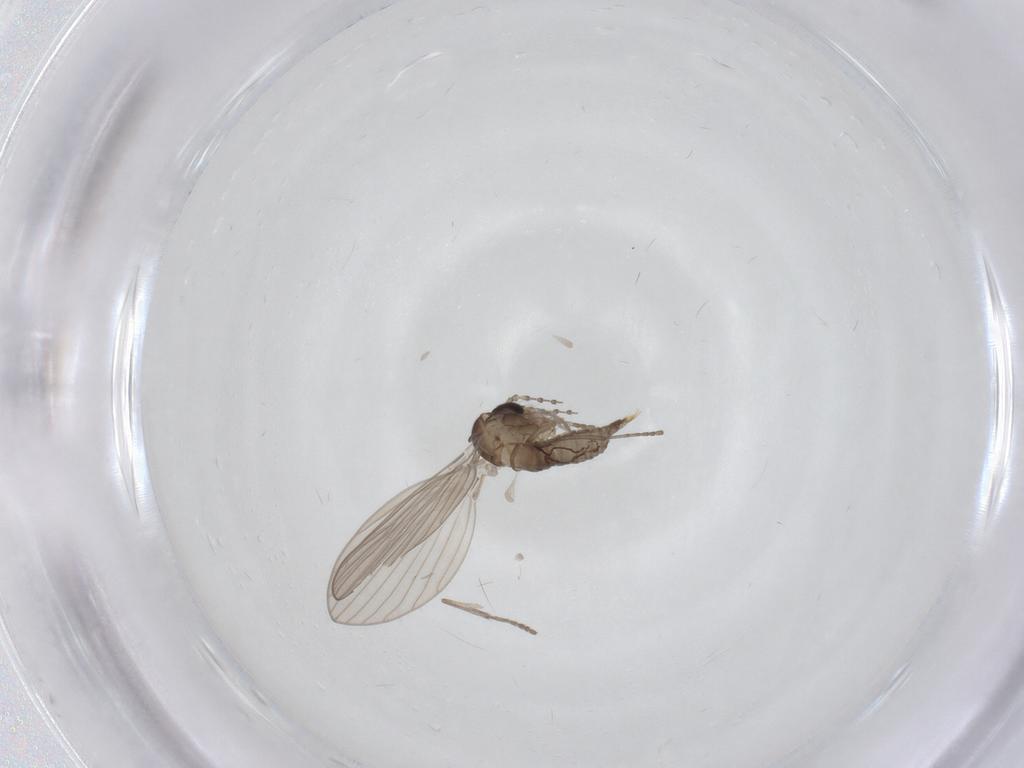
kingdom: Animalia
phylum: Arthropoda
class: Insecta
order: Diptera
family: Psychodidae
